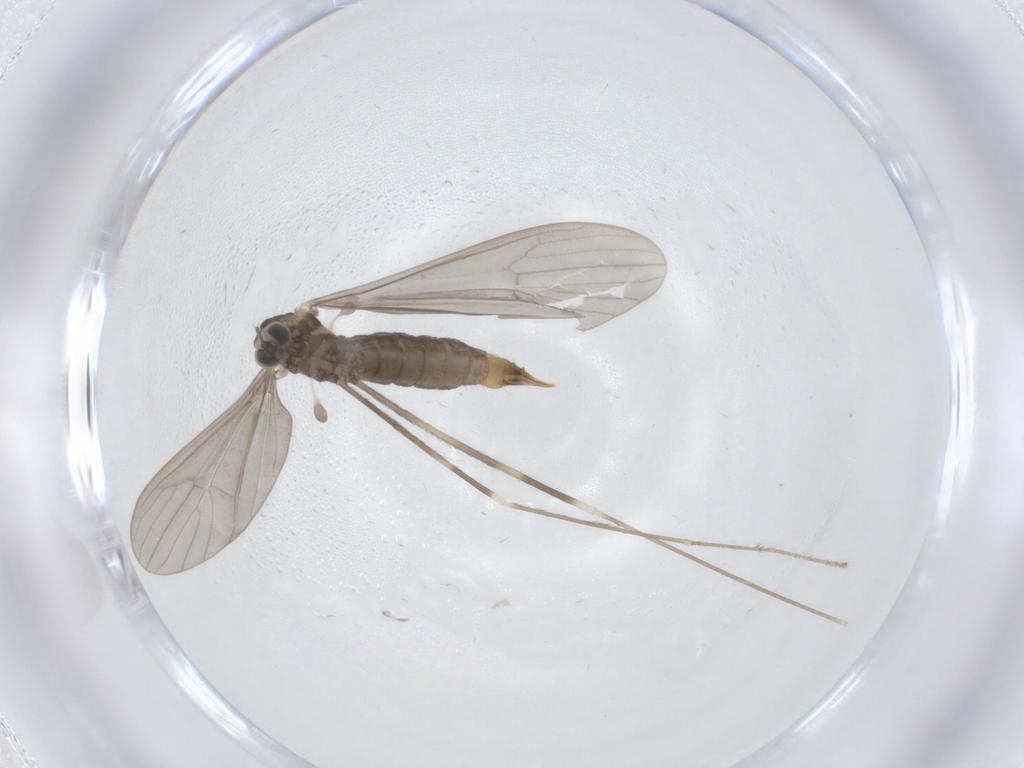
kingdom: Animalia
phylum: Arthropoda
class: Insecta
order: Diptera
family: Limoniidae
